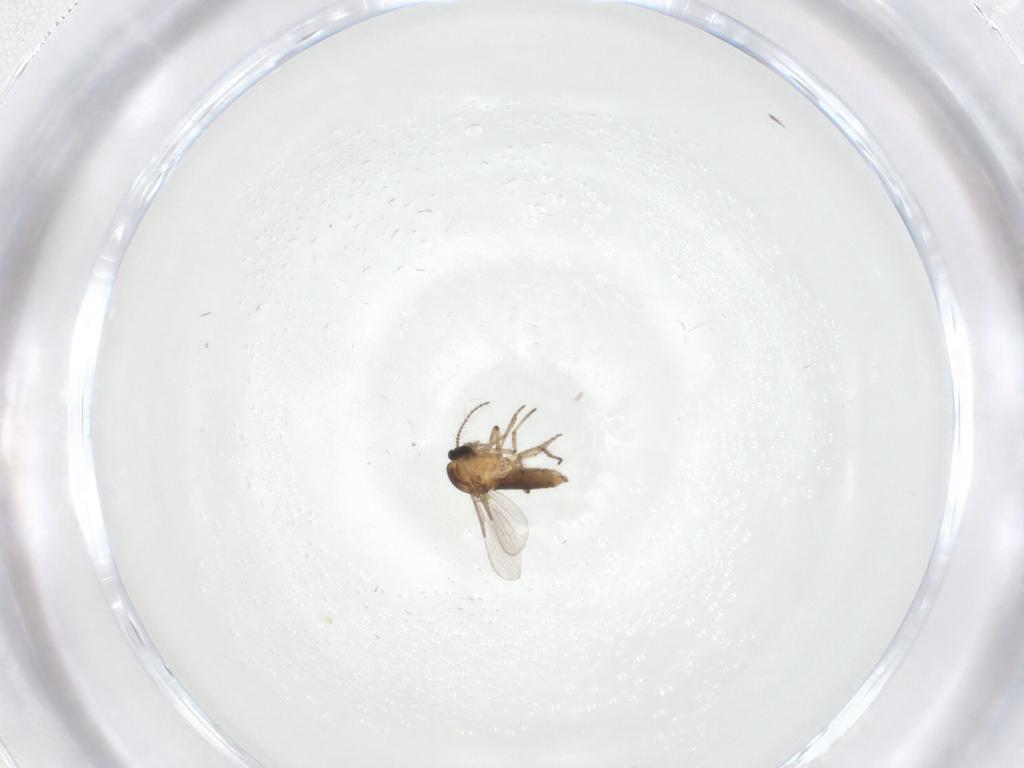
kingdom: Animalia
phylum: Arthropoda
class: Insecta
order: Diptera
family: Ceratopogonidae
